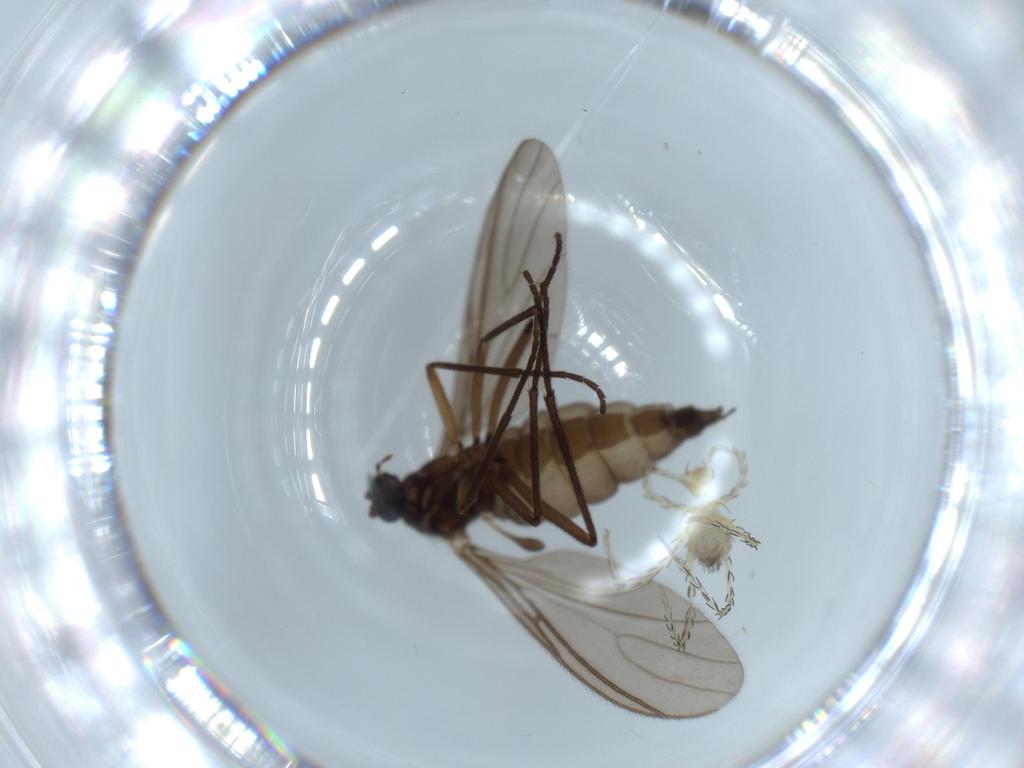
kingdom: Animalia
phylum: Arthropoda
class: Insecta
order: Diptera
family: Sciaridae
